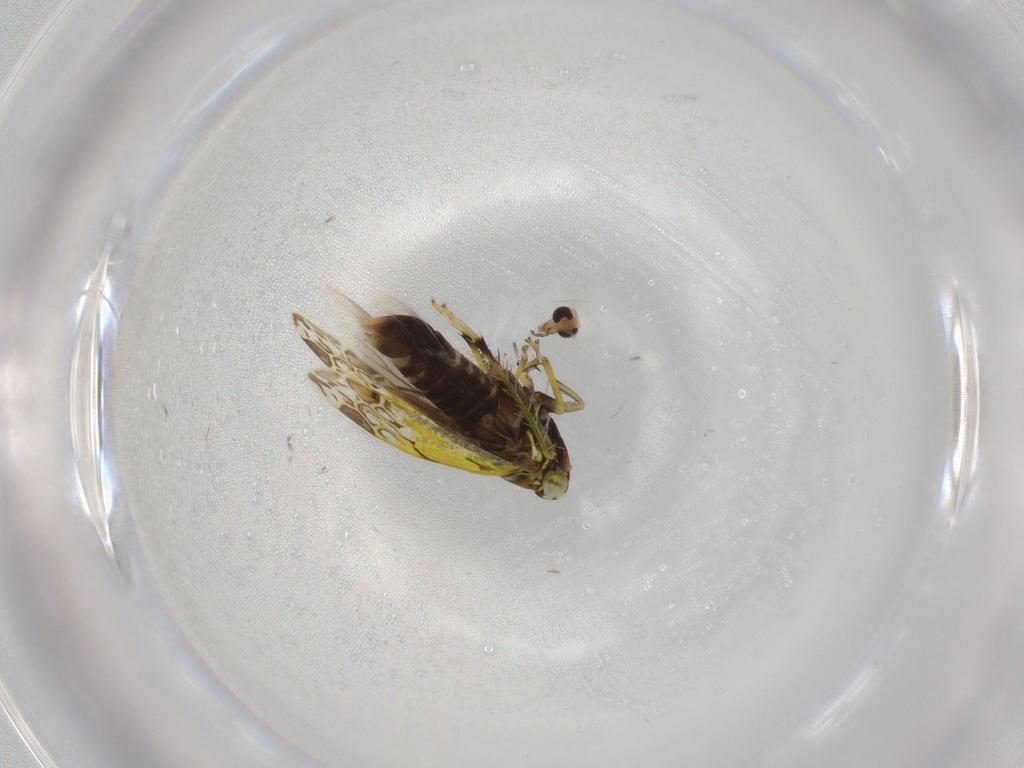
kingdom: Animalia
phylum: Arthropoda
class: Insecta
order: Hemiptera
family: Cicadellidae
